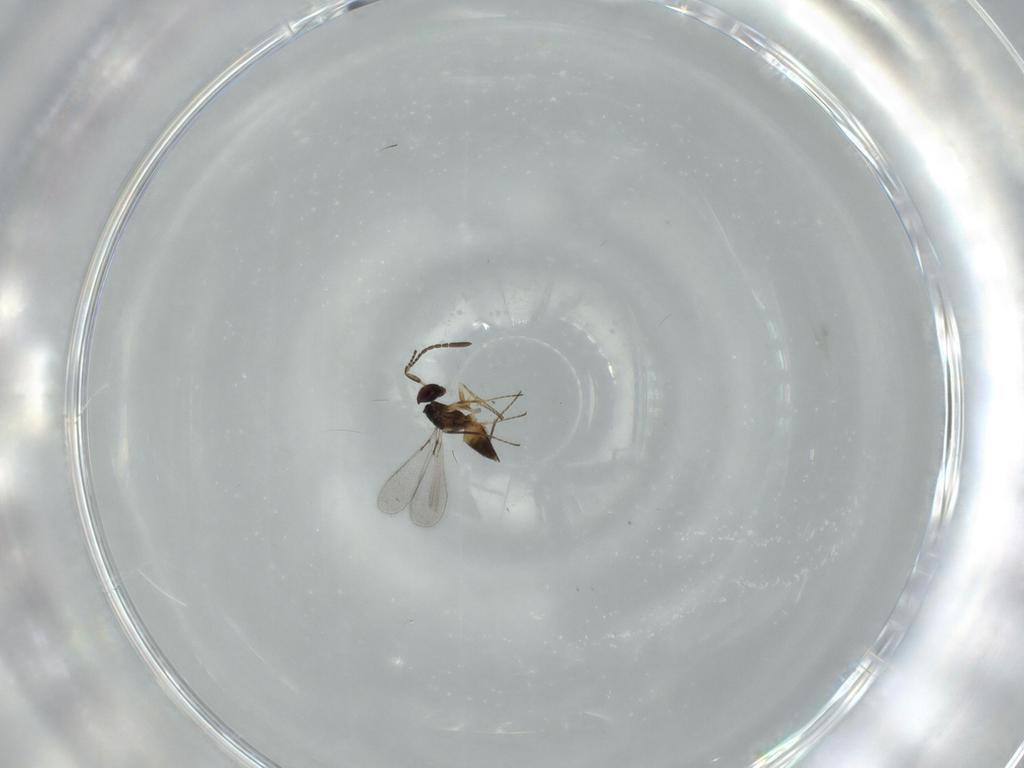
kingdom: Animalia
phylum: Arthropoda
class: Insecta
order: Hymenoptera
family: Mymaridae
